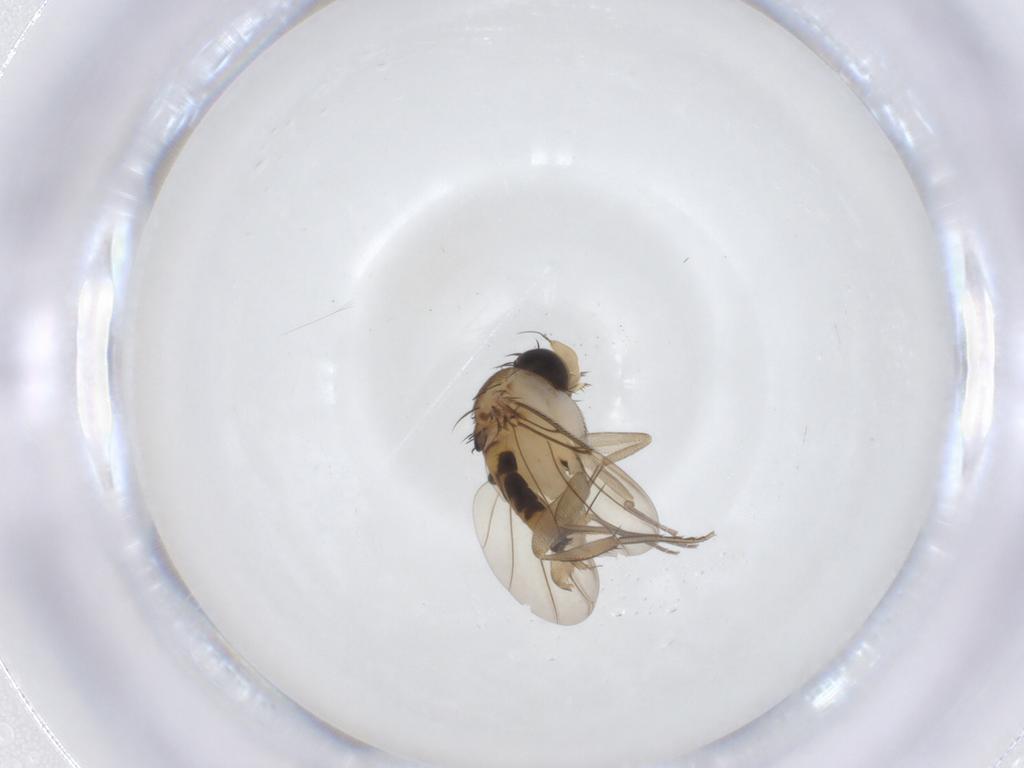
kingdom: Animalia
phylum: Arthropoda
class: Insecta
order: Diptera
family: Phoridae
